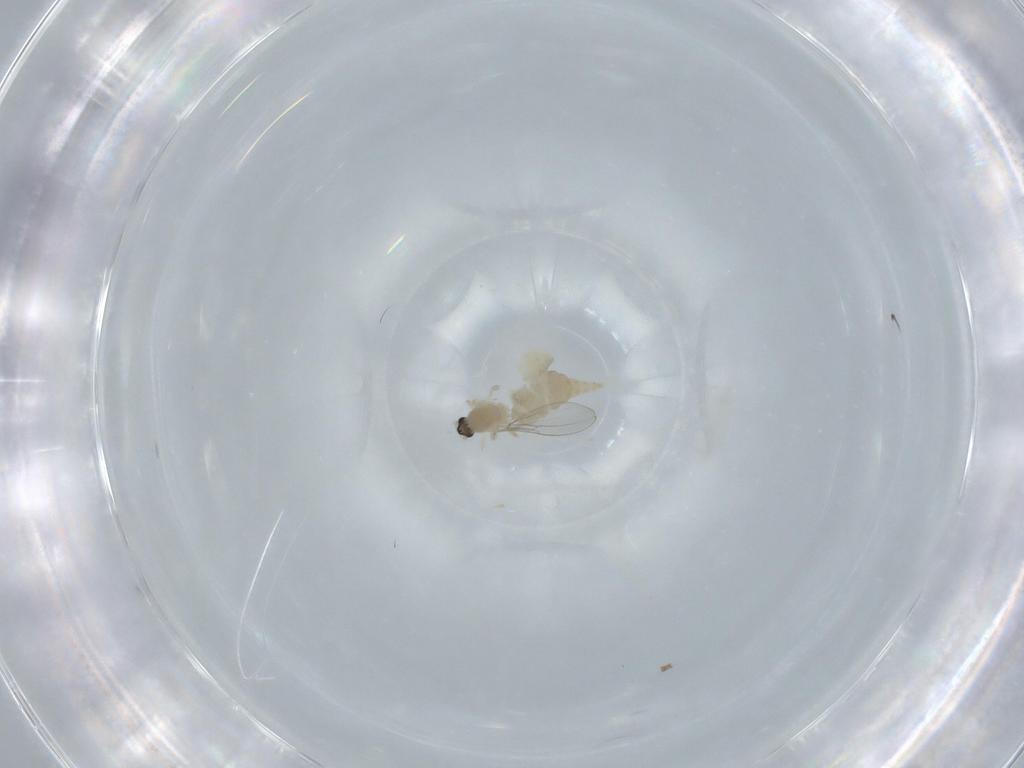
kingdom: Animalia
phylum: Arthropoda
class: Insecta
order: Diptera
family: Cecidomyiidae
